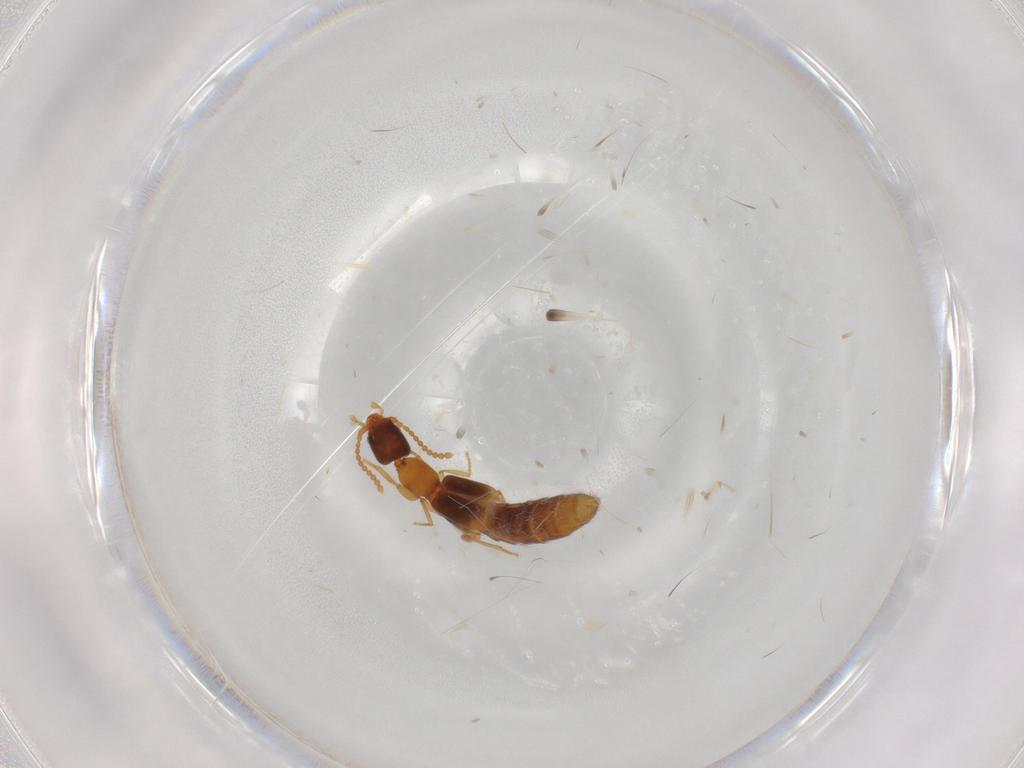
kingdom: Animalia
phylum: Arthropoda
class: Insecta
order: Coleoptera
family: Staphylinidae
